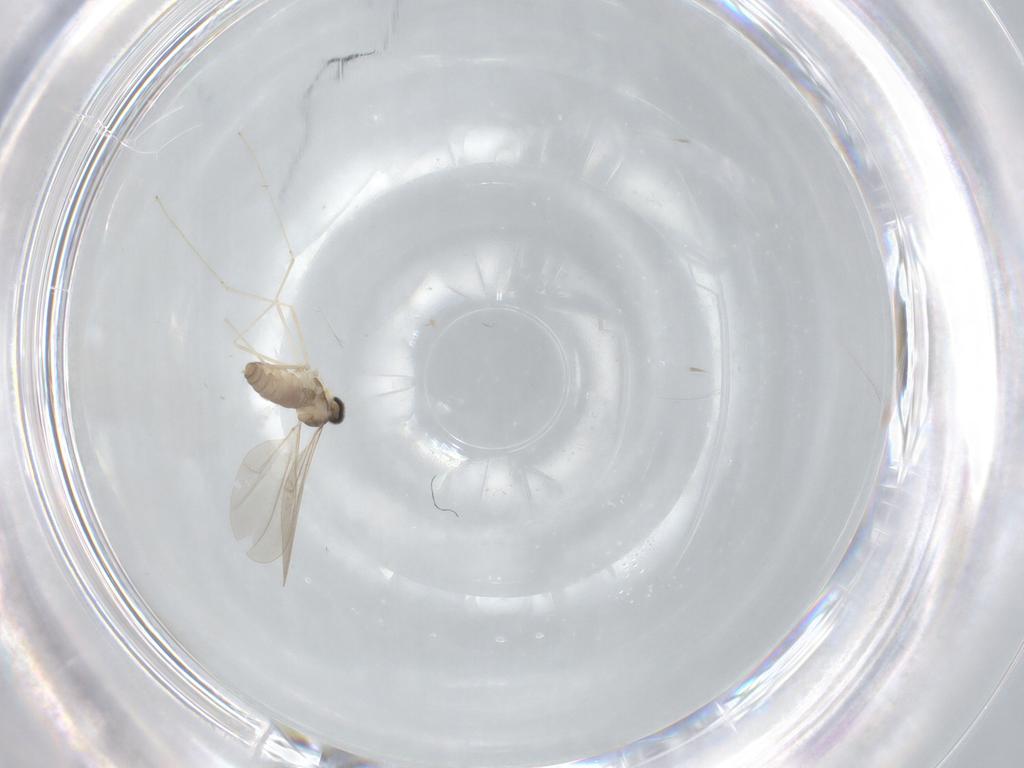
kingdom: Animalia
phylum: Arthropoda
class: Insecta
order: Diptera
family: Cecidomyiidae
